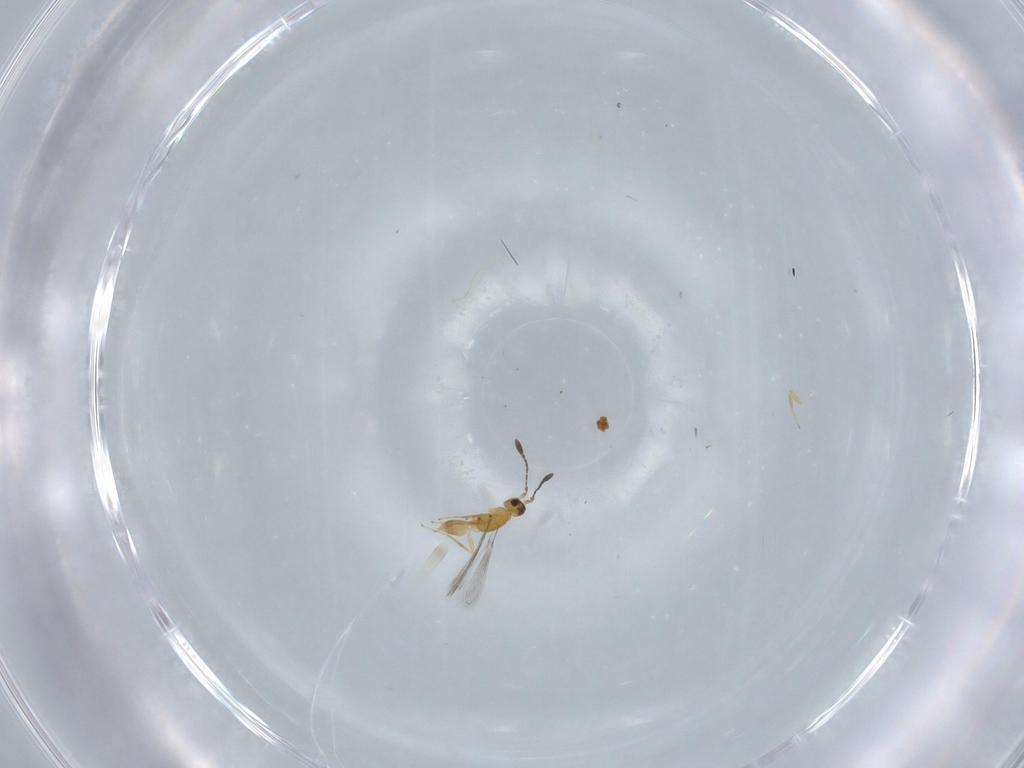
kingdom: Animalia
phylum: Arthropoda
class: Insecta
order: Hymenoptera
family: Mymaridae
